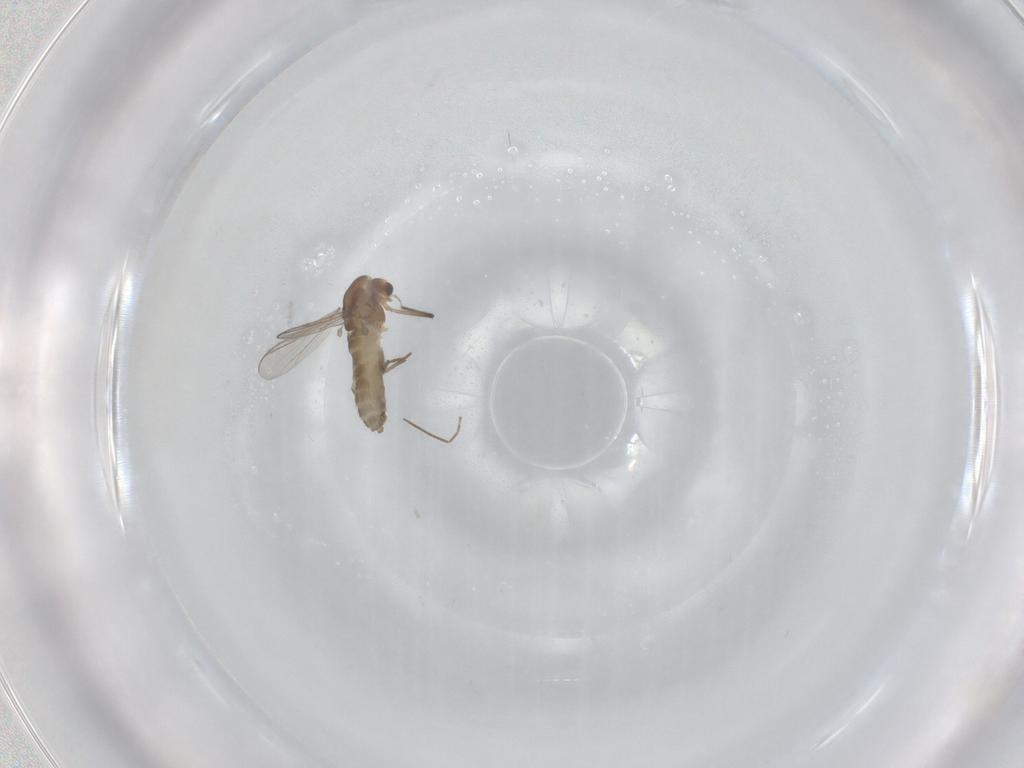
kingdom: Animalia
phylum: Arthropoda
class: Insecta
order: Diptera
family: Chironomidae
